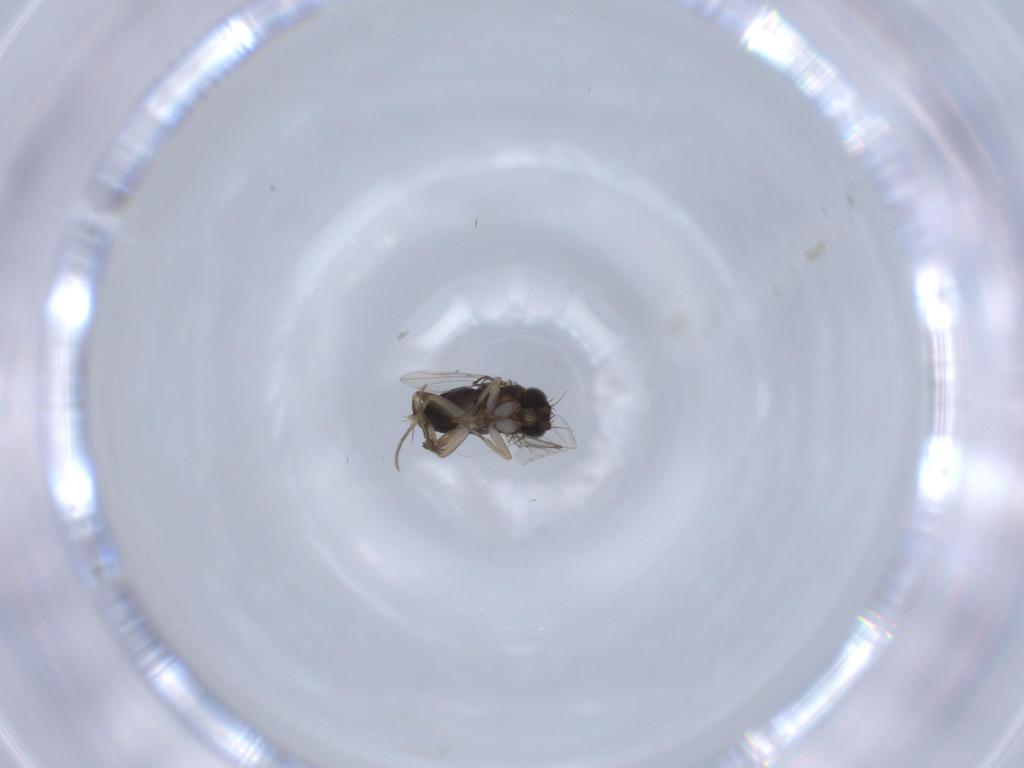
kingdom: Animalia
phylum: Arthropoda
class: Insecta
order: Diptera
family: Phoridae
